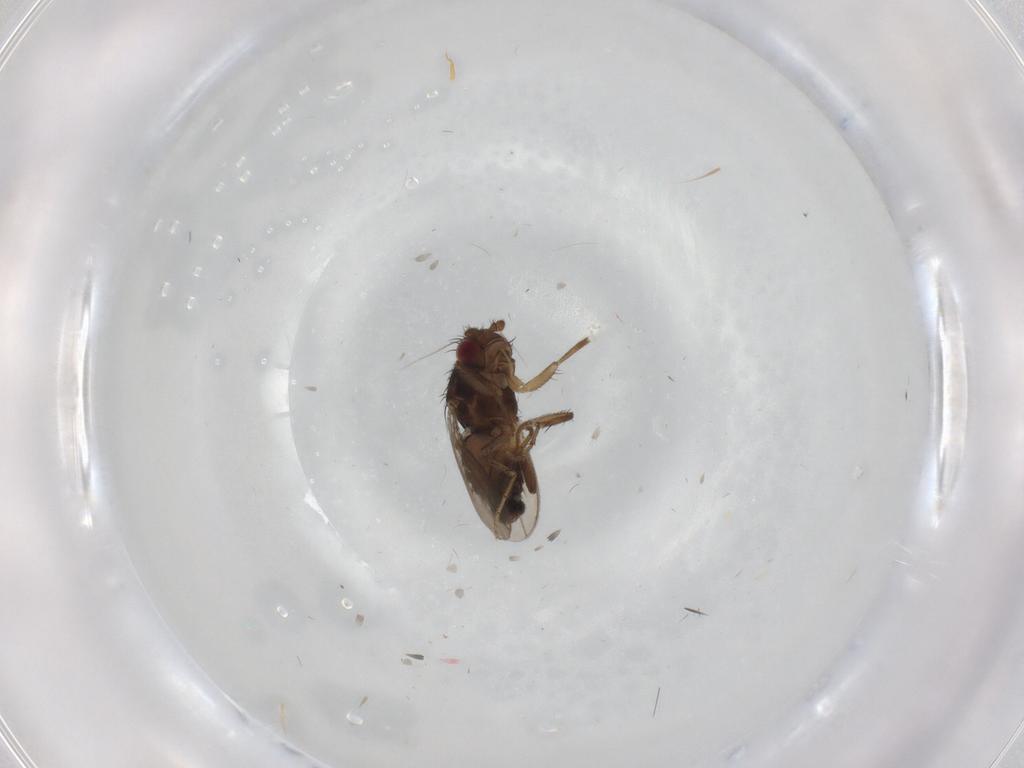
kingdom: Animalia
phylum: Arthropoda
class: Insecta
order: Diptera
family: Sphaeroceridae
